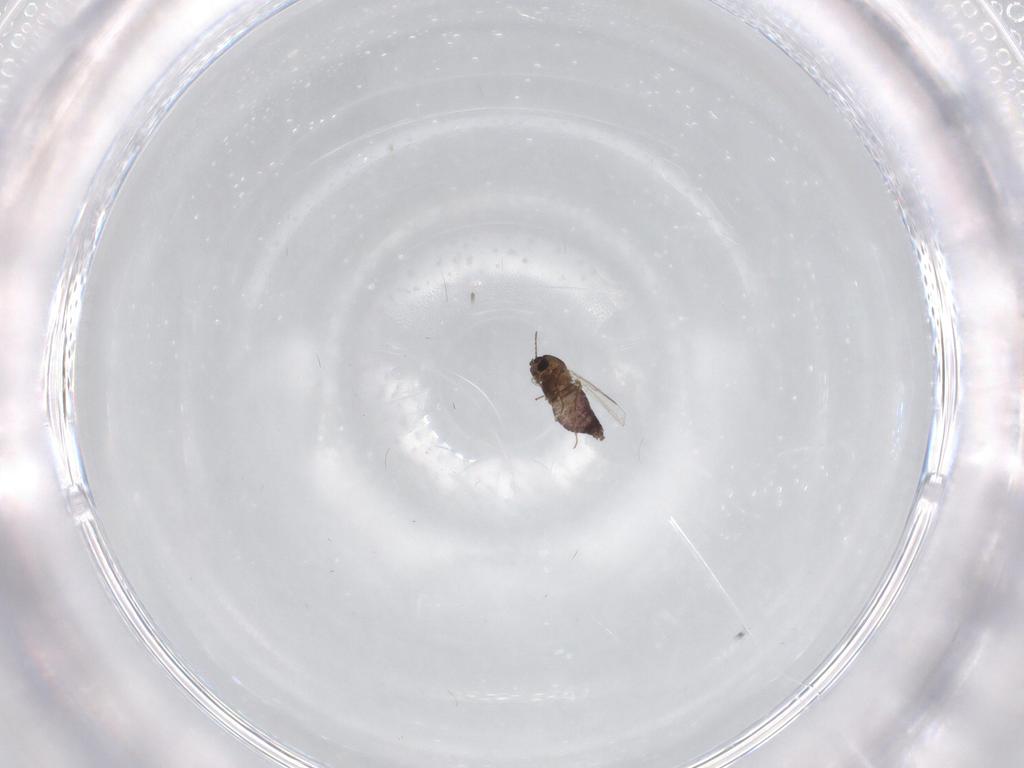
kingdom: Animalia
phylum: Arthropoda
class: Insecta
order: Diptera
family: Chironomidae
